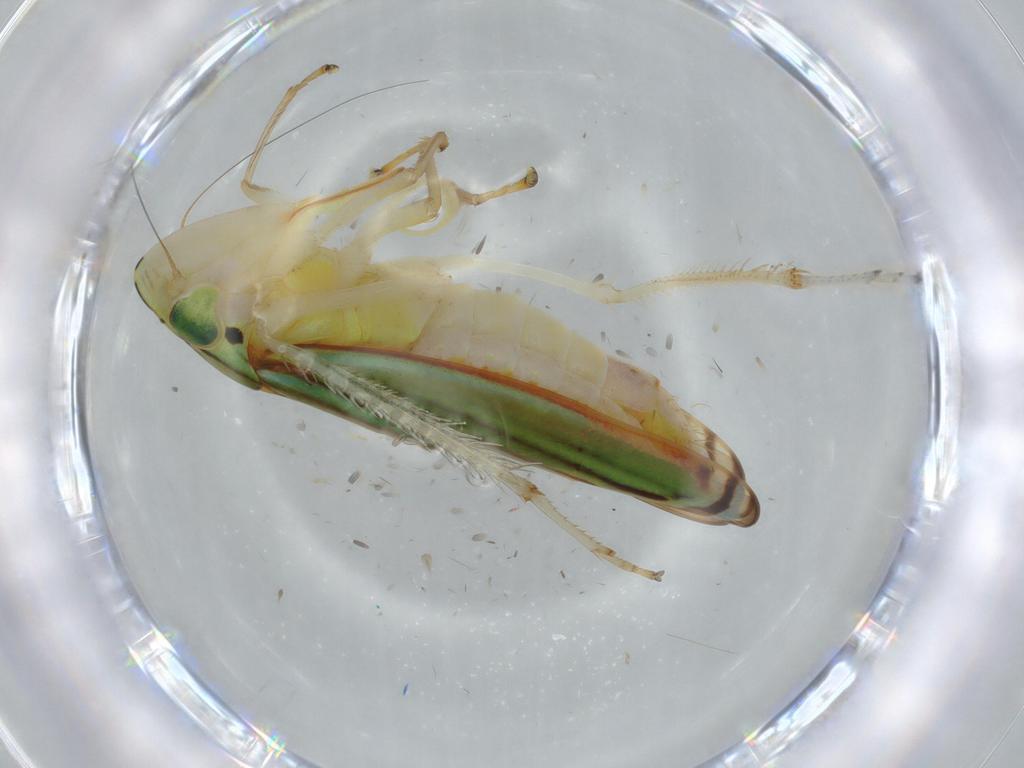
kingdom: Animalia
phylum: Arthropoda
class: Insecta
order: Hemiptera
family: Cicadellidae
